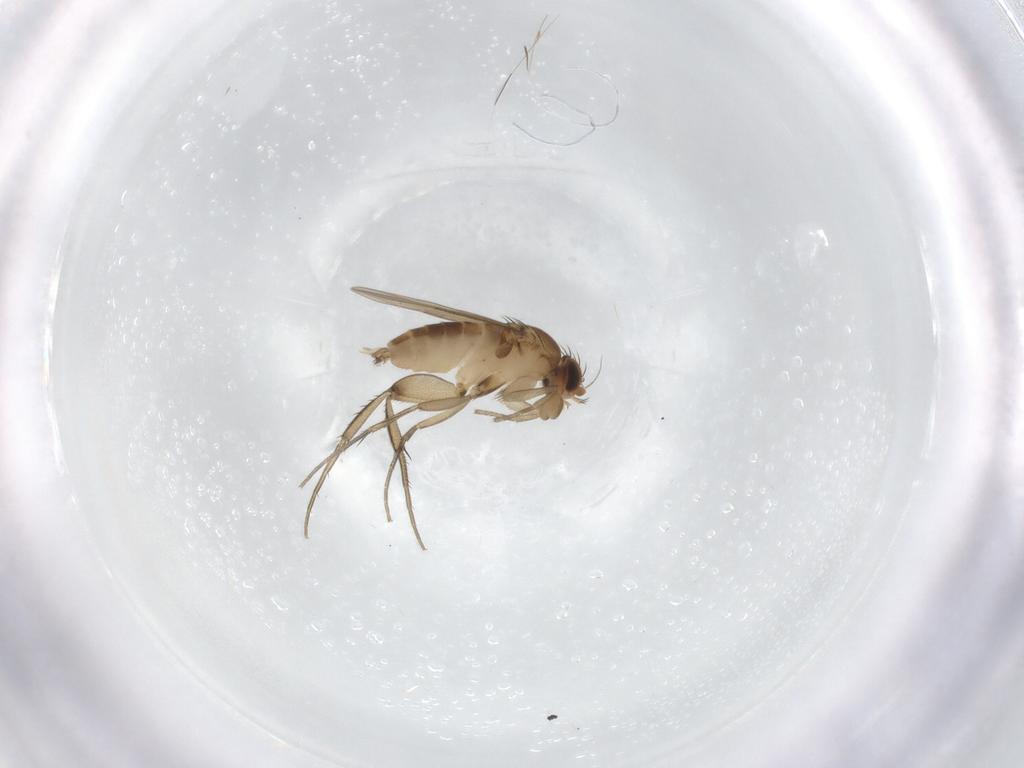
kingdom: Animalia
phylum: Arthropoda
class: Insecta
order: Diptera
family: Phoridae
